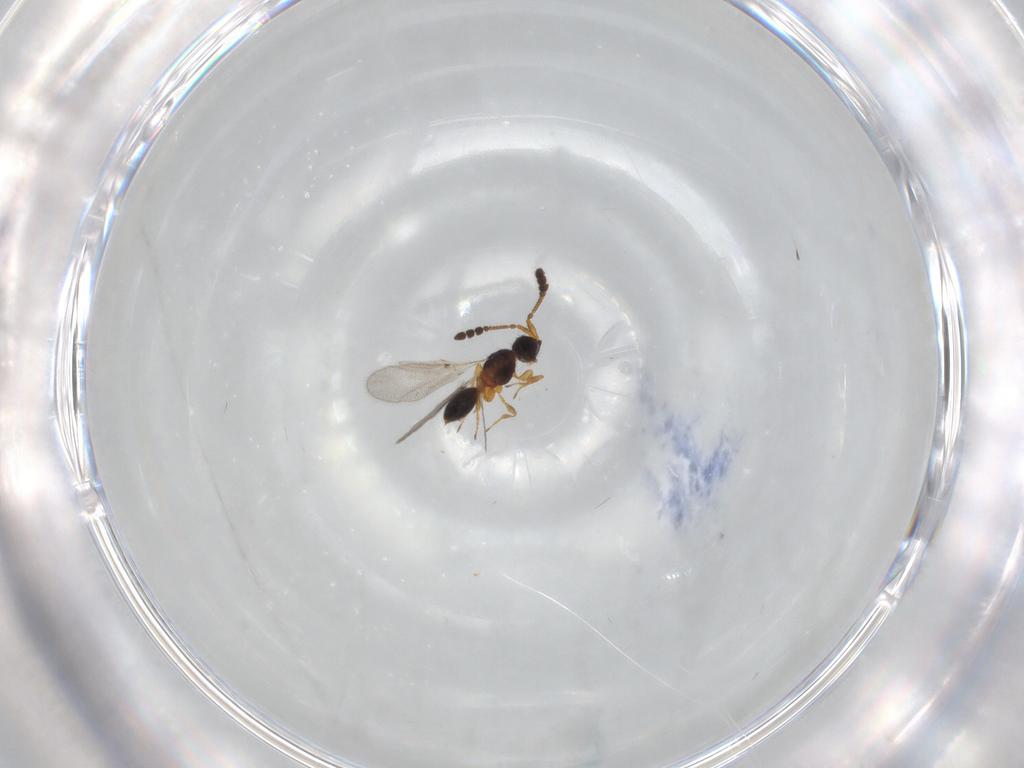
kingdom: Animalia
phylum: Arthropoda
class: Insecta
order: Hymenoptera
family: Diapriidae
